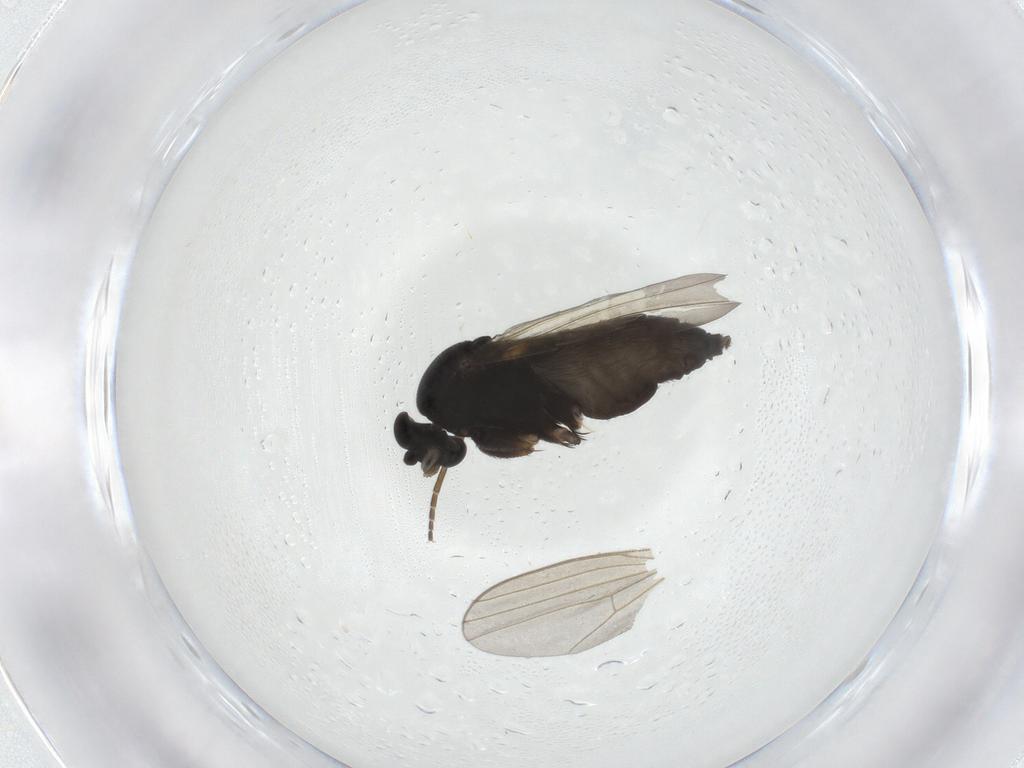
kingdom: Animalia
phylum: Arthropoda
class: Insecta
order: Diptera
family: Phoridae
